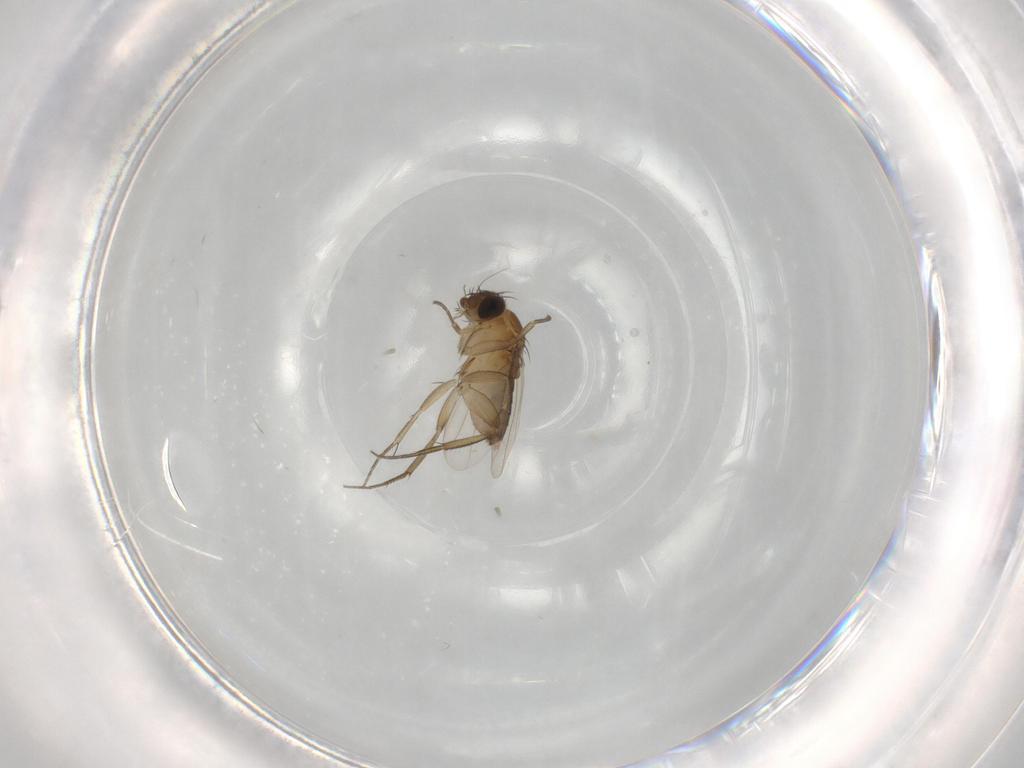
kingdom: Animalia
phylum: Arthropoda
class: Insecta
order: Diptera
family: Phoridae
